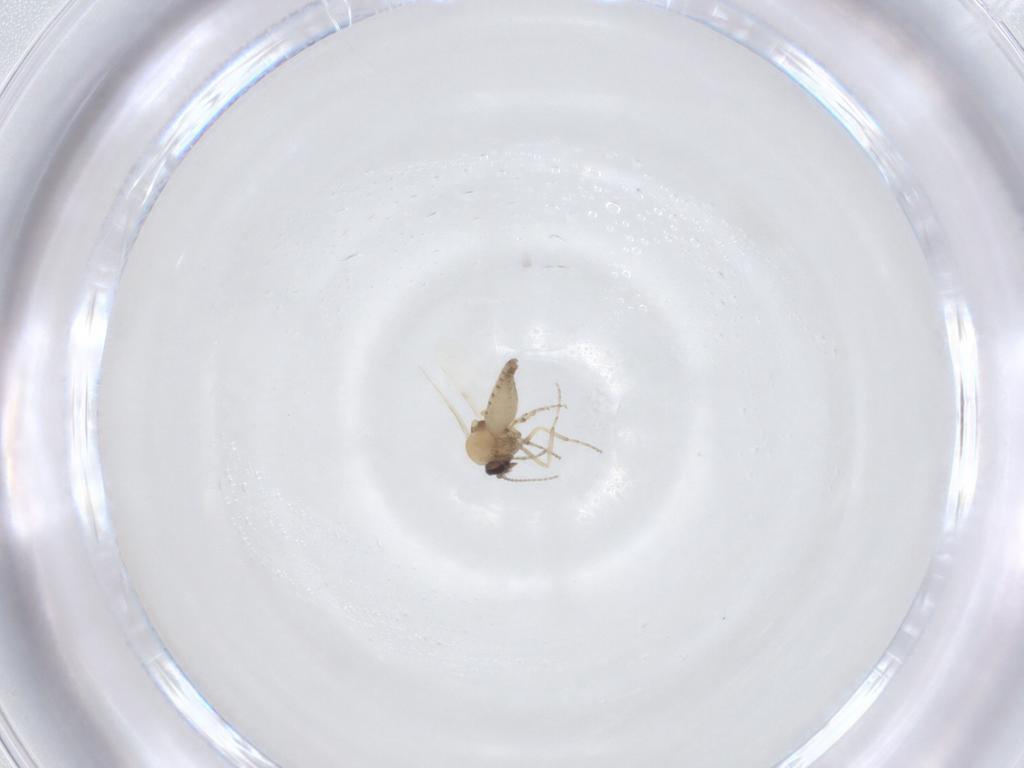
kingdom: Animalia
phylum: Arthropoda
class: Insecta
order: Diptera
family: Ceratopogonidae
